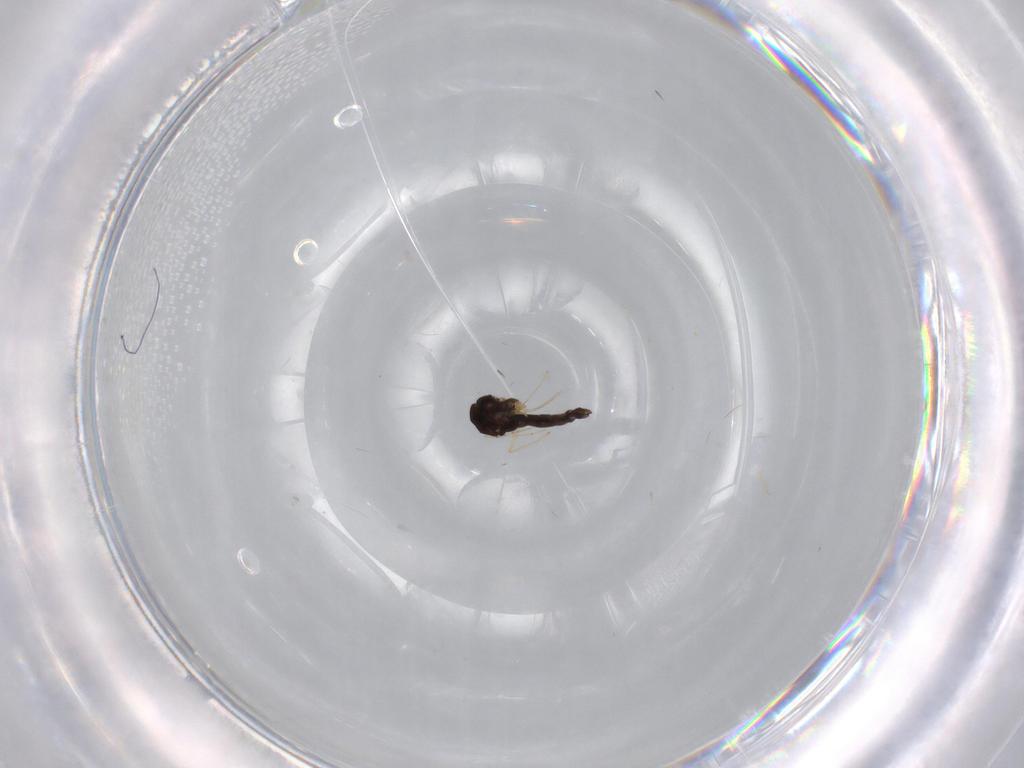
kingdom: Animalia
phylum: Arthropoda
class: Insecta
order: Diptera
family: Chironomidae
